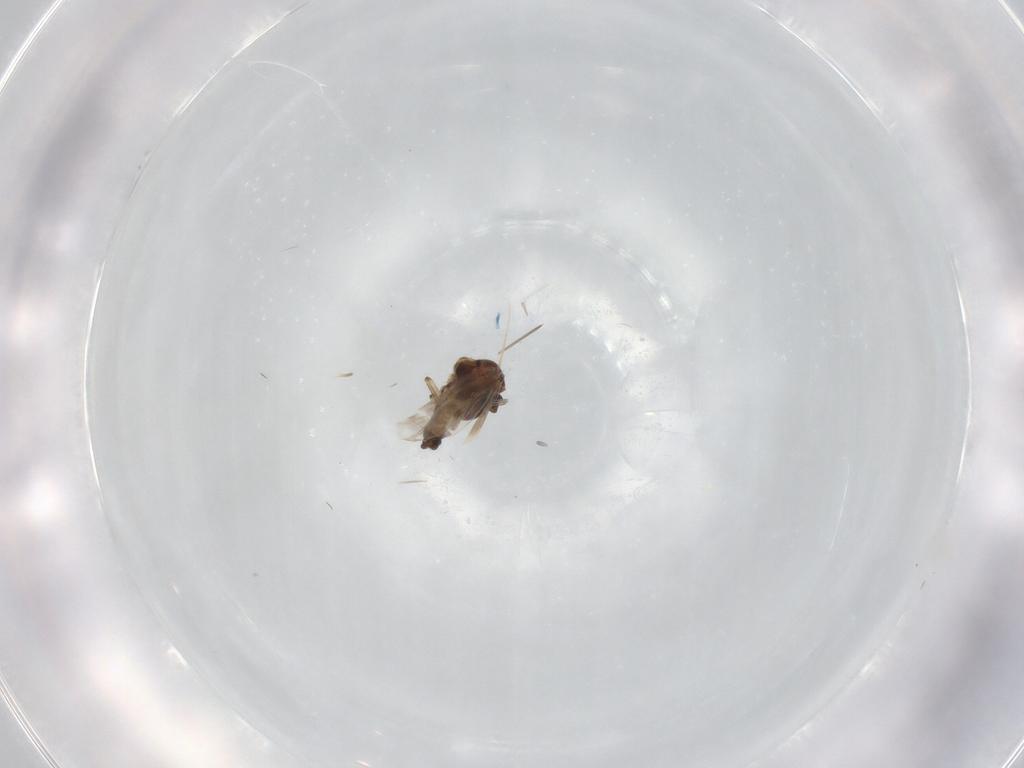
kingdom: Animalia
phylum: Arthropoda
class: Insecta
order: Diptera
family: Ceratopogonidae
